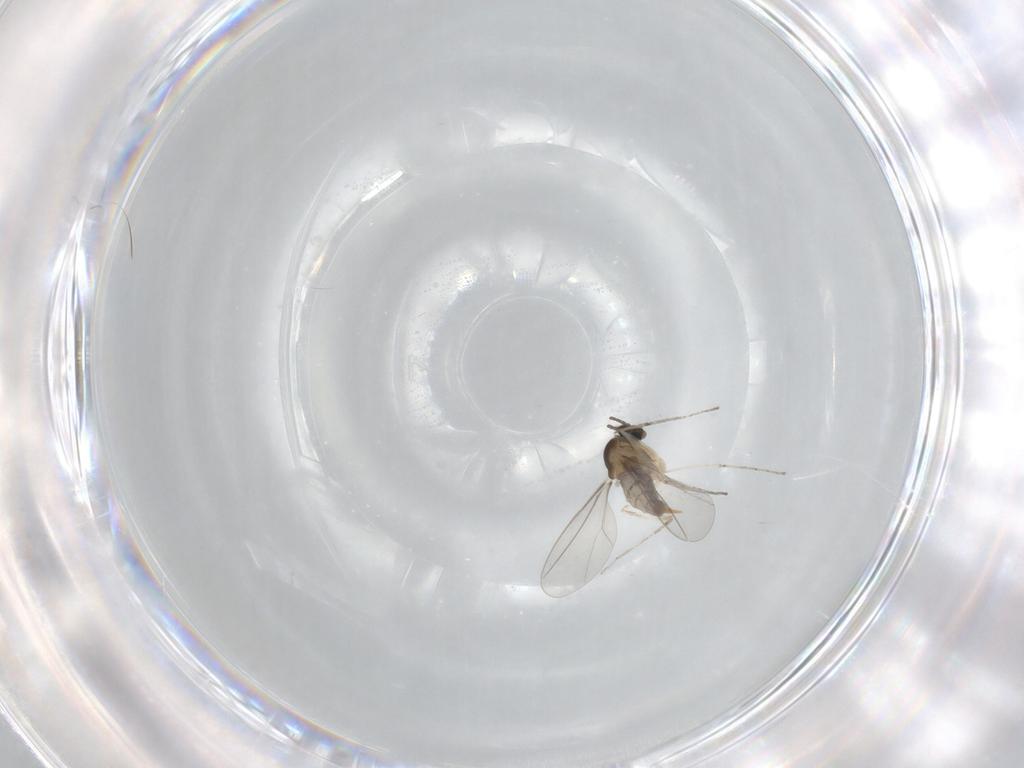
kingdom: Animalia
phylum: Arthropoda
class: Insecta
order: Diptera
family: Cecidomyiidae
